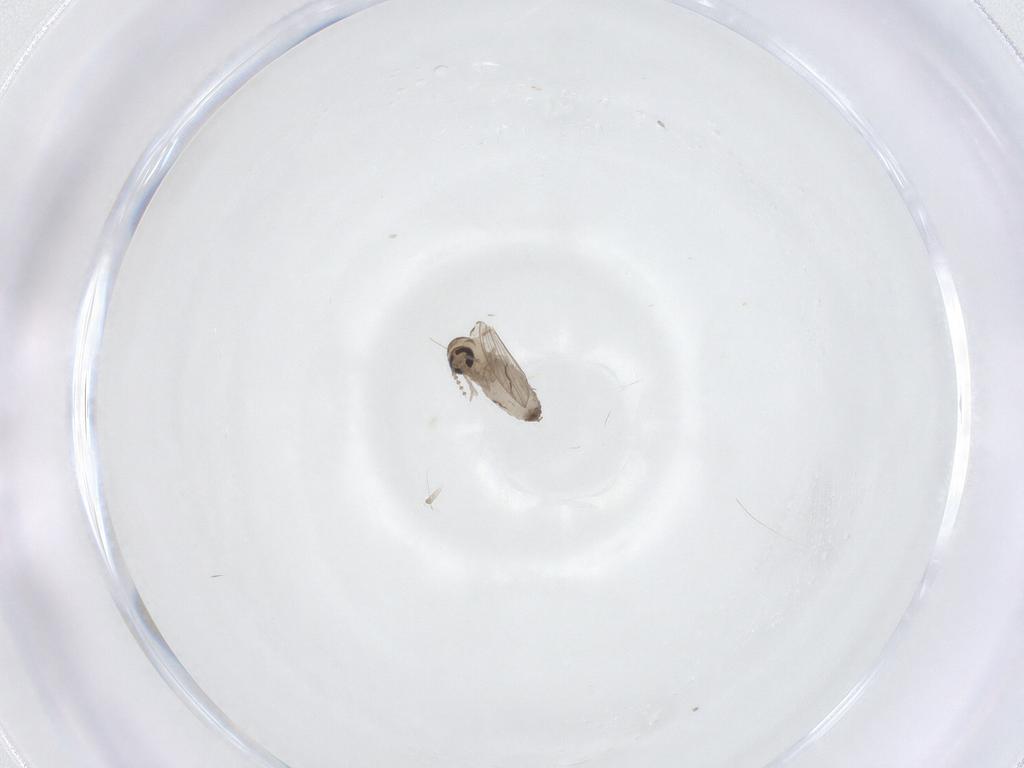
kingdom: Animalia
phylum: Arthropoda
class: Insecta
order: Diptera
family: Psychodidae
